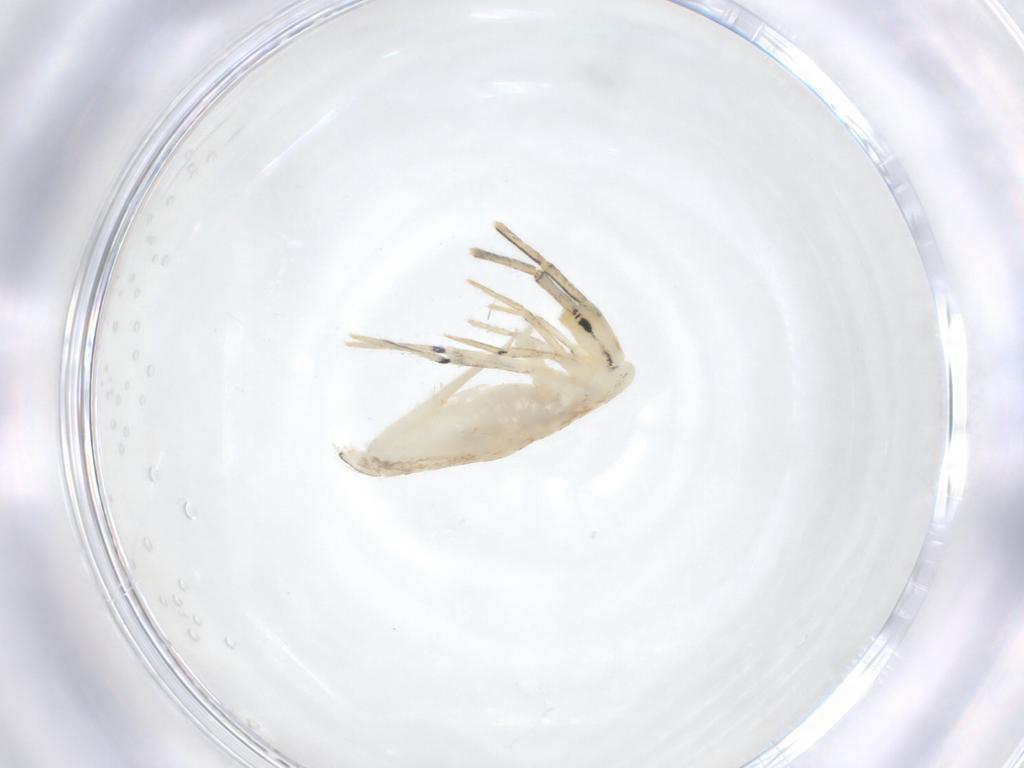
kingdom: Animalia
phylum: Arthropoda
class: Collembola
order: Entomobryomorpha
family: Entomobryidae
